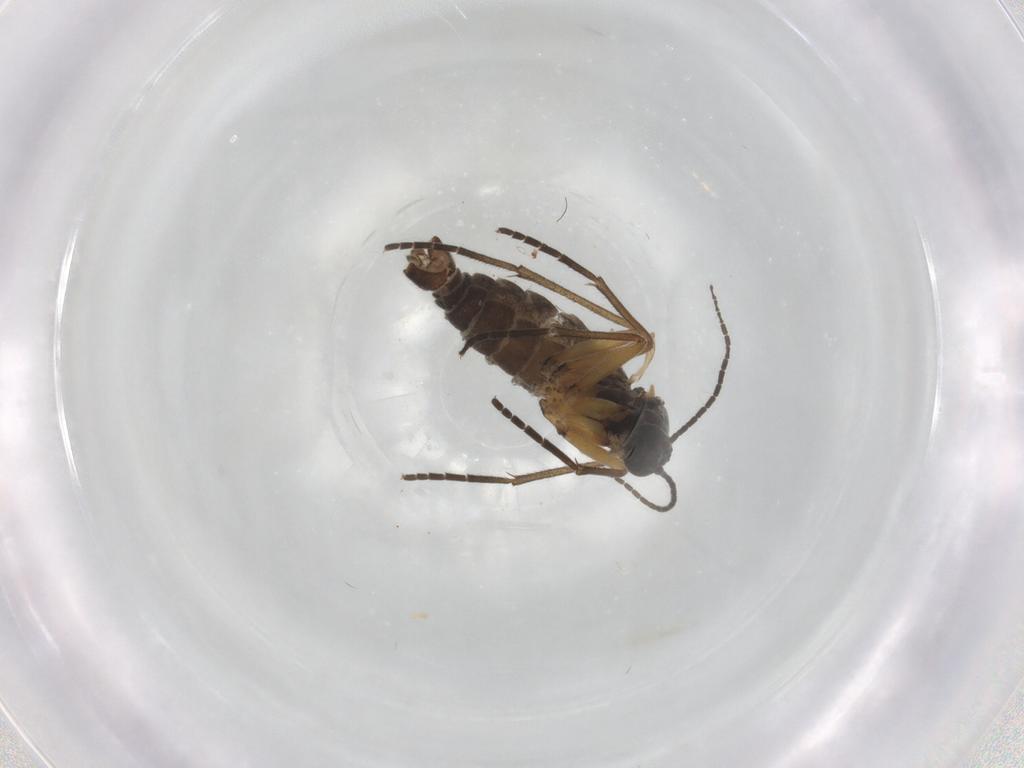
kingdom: Animalia
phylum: Arthropoda
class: Insecta
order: Diptera
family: Sciaridae
